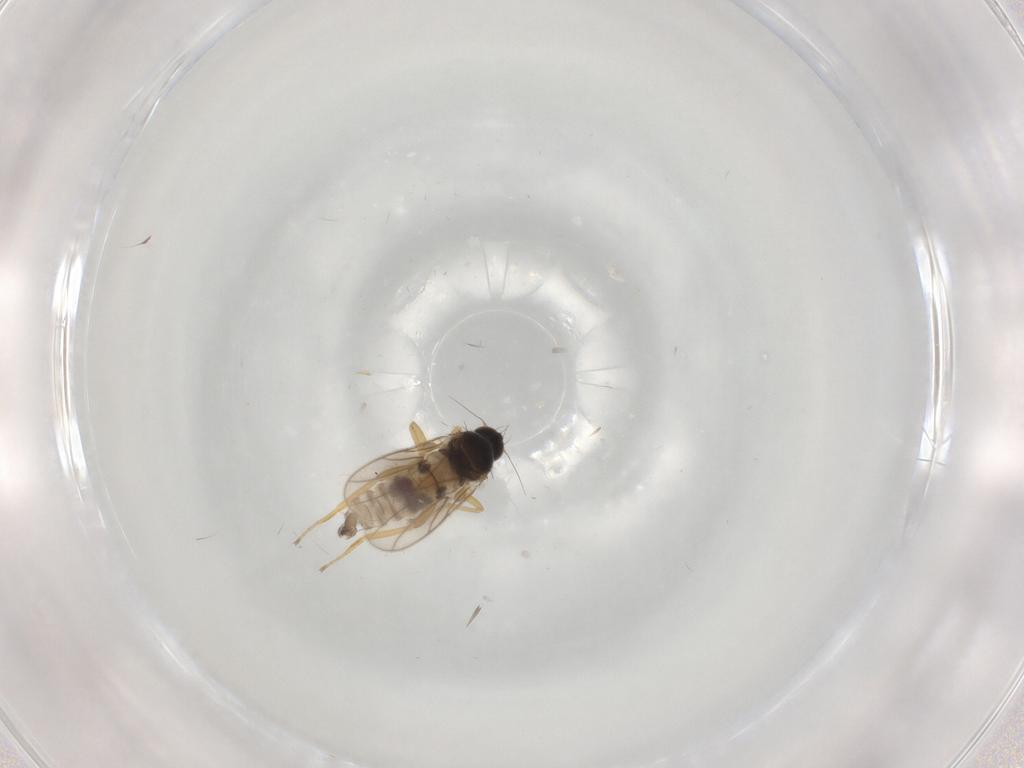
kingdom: Animalia
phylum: Arthropoda
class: Insecta
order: Diptera
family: Hybotidae
